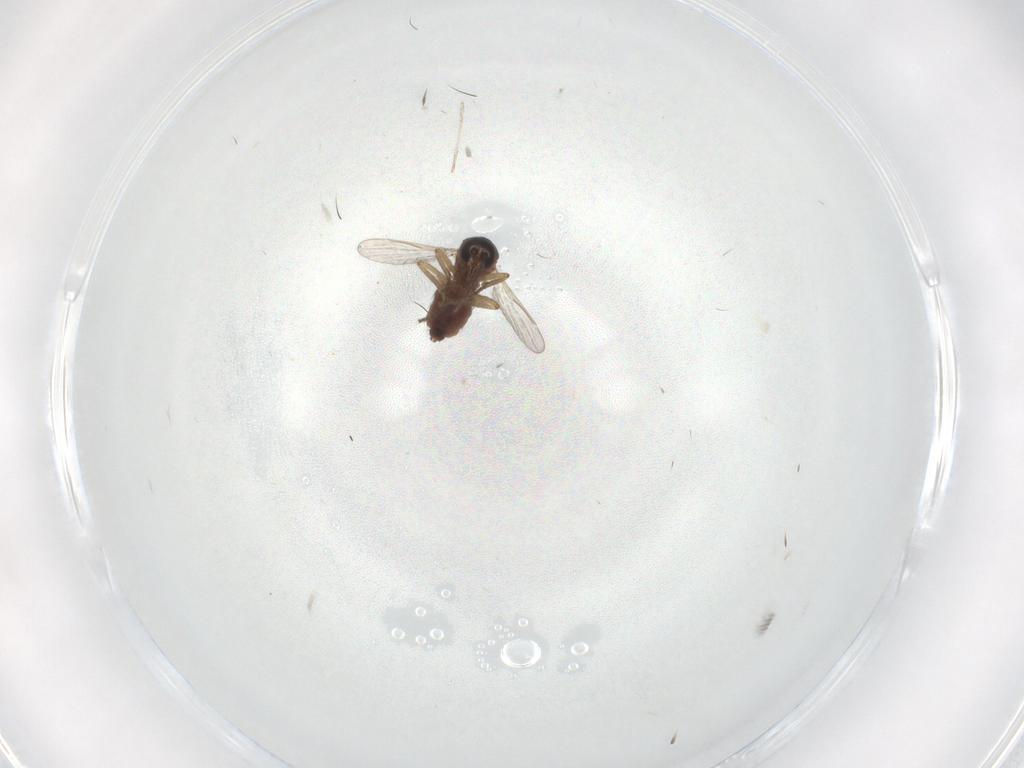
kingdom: Animalia
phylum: Arthropoda
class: Insecta
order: Diptera
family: Ceratopogonidae
